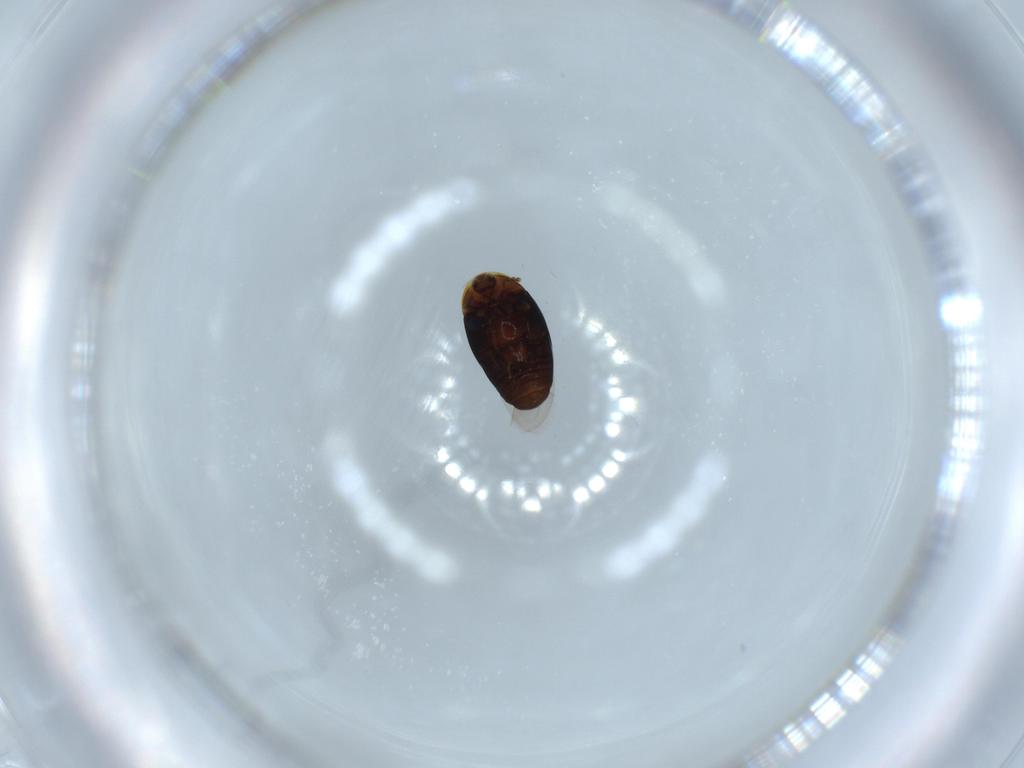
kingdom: Animalia
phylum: Arthropoda
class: Insecta
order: Coleoptera
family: Corylophidae
